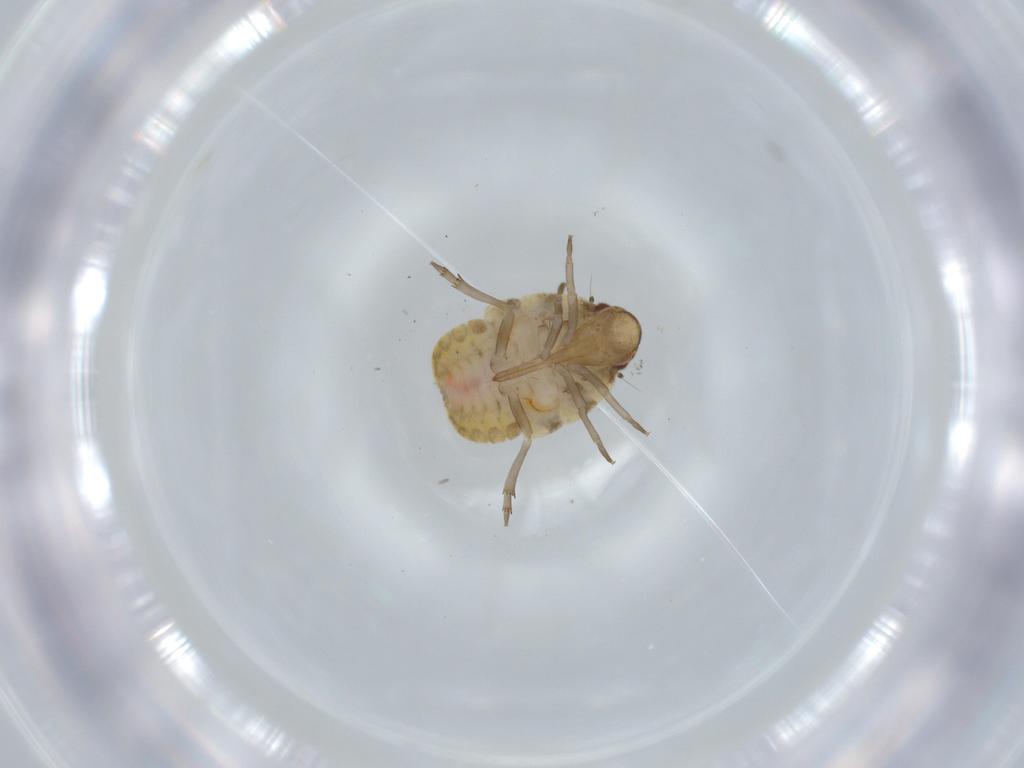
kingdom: Animalia
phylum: Arthropoda
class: Insecta
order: Hemiptera
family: Flatidae
